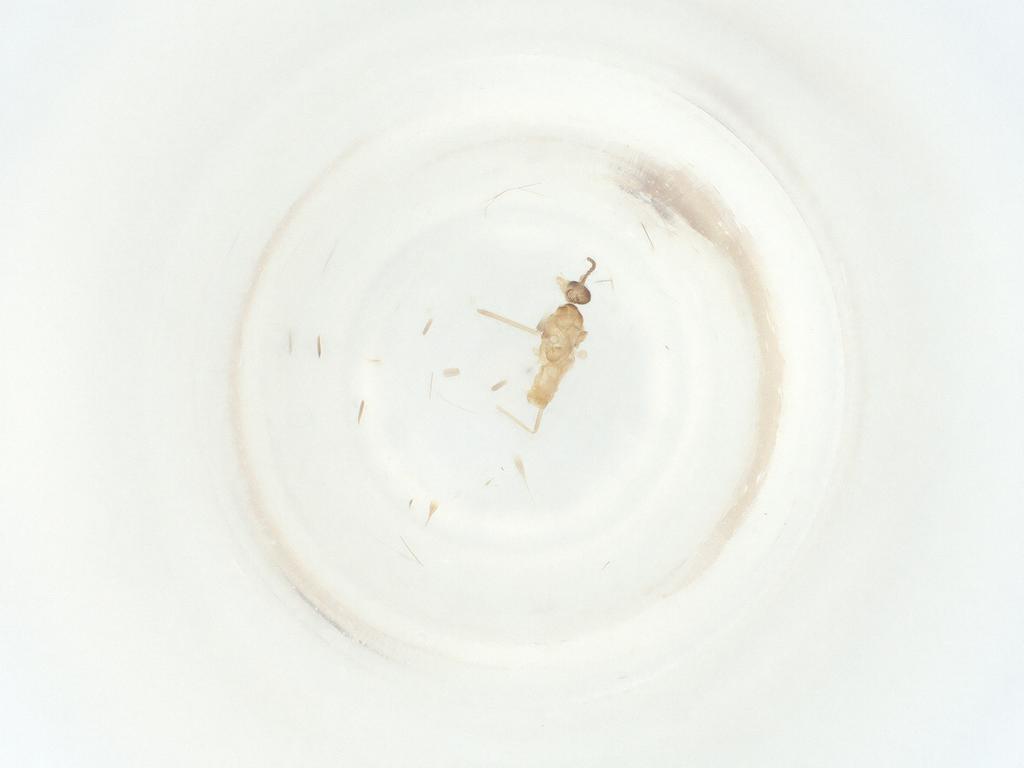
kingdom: Animalia
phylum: Arthropoda
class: Insecta
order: Diptera
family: Cecidomyiidae
